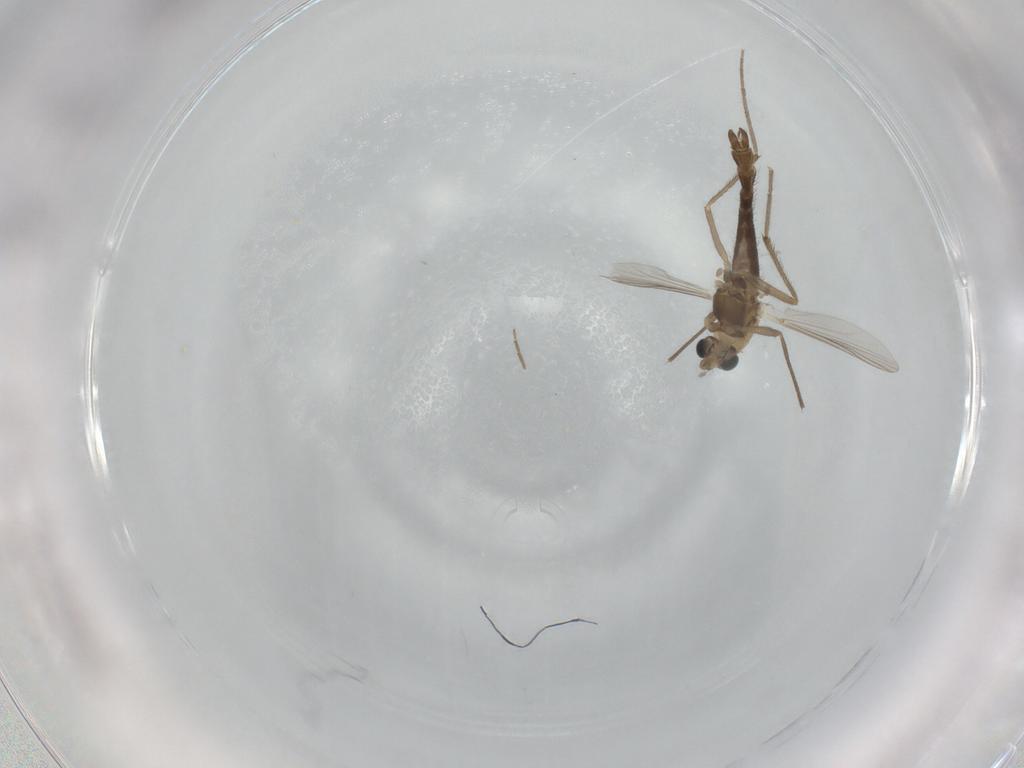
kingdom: Animalia
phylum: Arthropoda
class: Insecta
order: Diptera
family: Chironomidae
